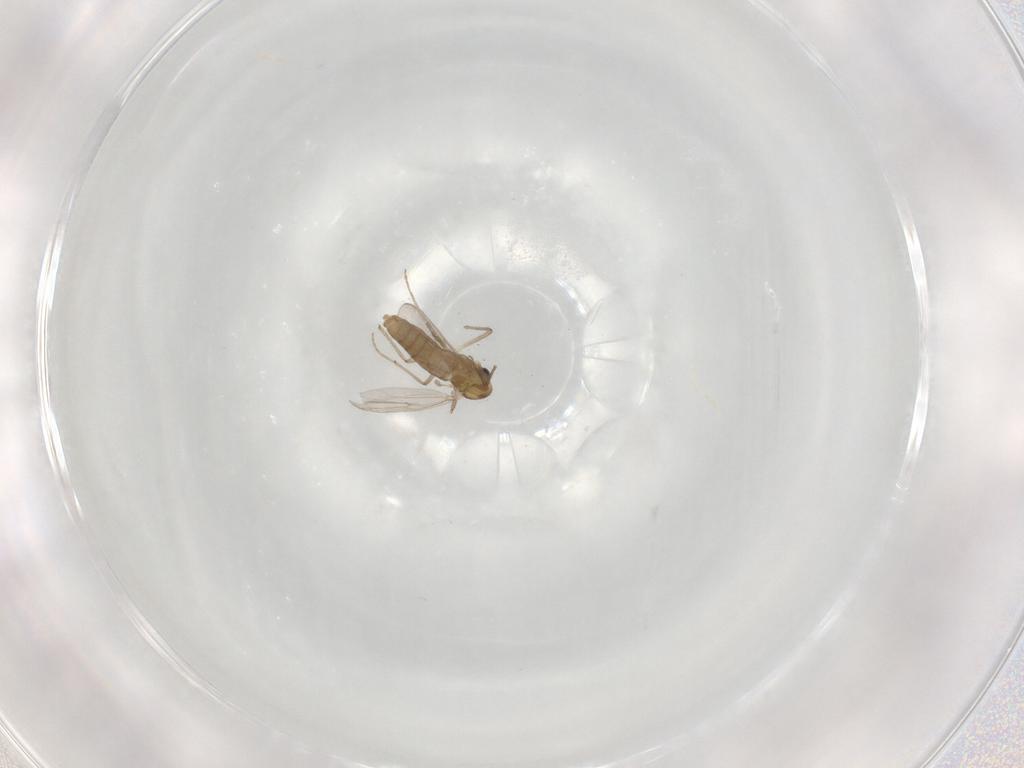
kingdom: Animalia
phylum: Arthropoda
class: Insecta
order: Diptera
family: Chironomidae
